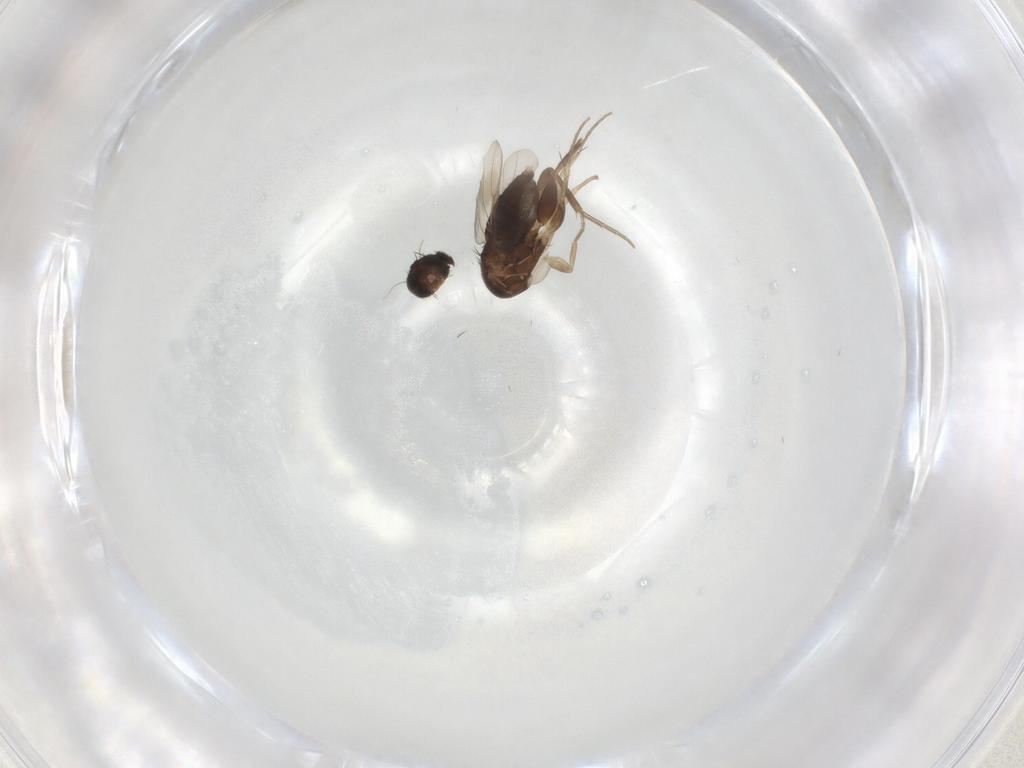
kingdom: Animalia
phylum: Arthropoda
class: Insecta
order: Diptera
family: Phoridae
